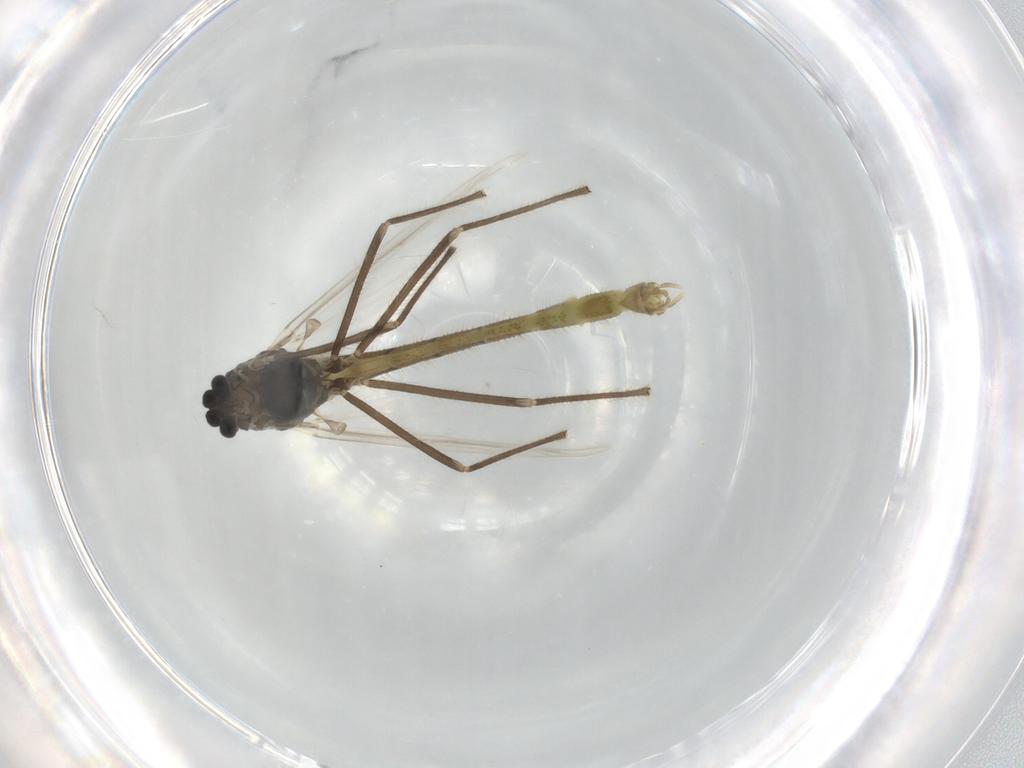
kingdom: Animalia
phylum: Arthropoda
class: Insecta
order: Diptera
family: Chironomidae
